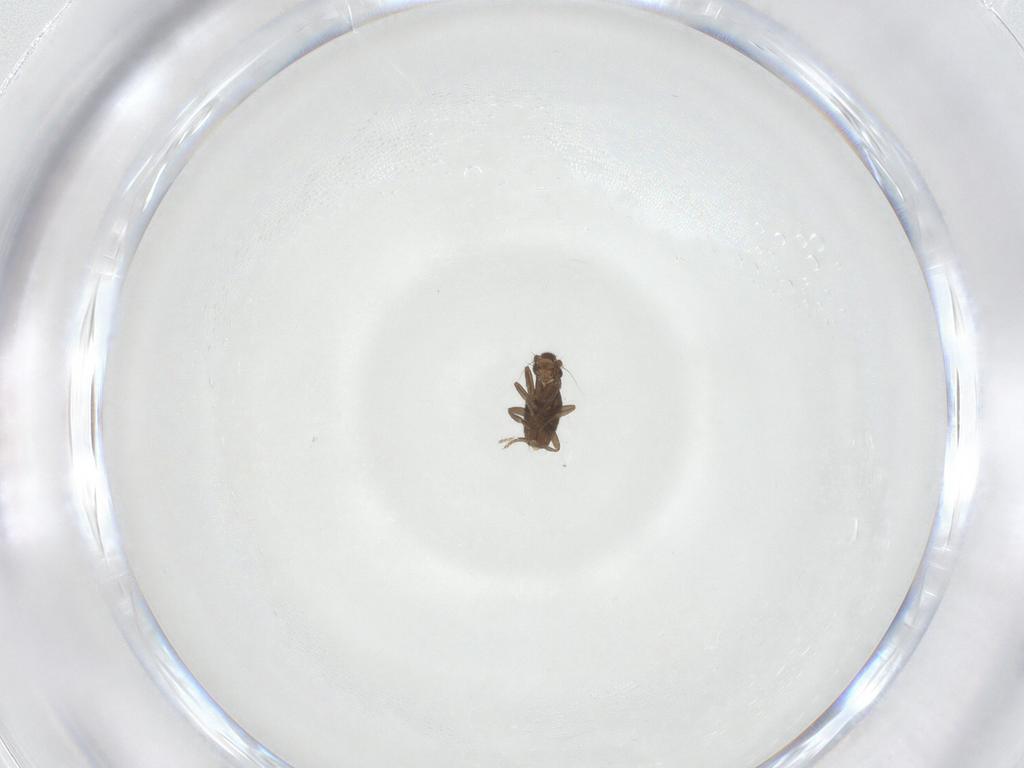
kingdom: Animalia
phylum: Arthropoda
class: Insecta
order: Diptera
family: Phoridae
